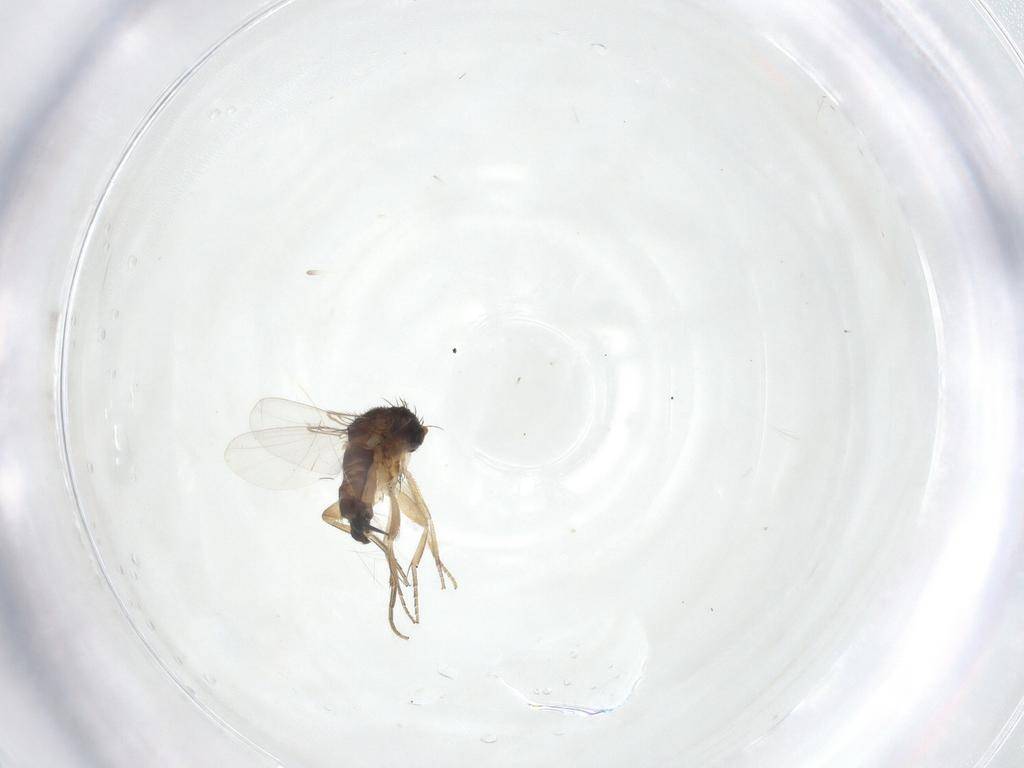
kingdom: Animalia
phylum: Arthropoda
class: Insecta
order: Diptera
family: Phoridae
